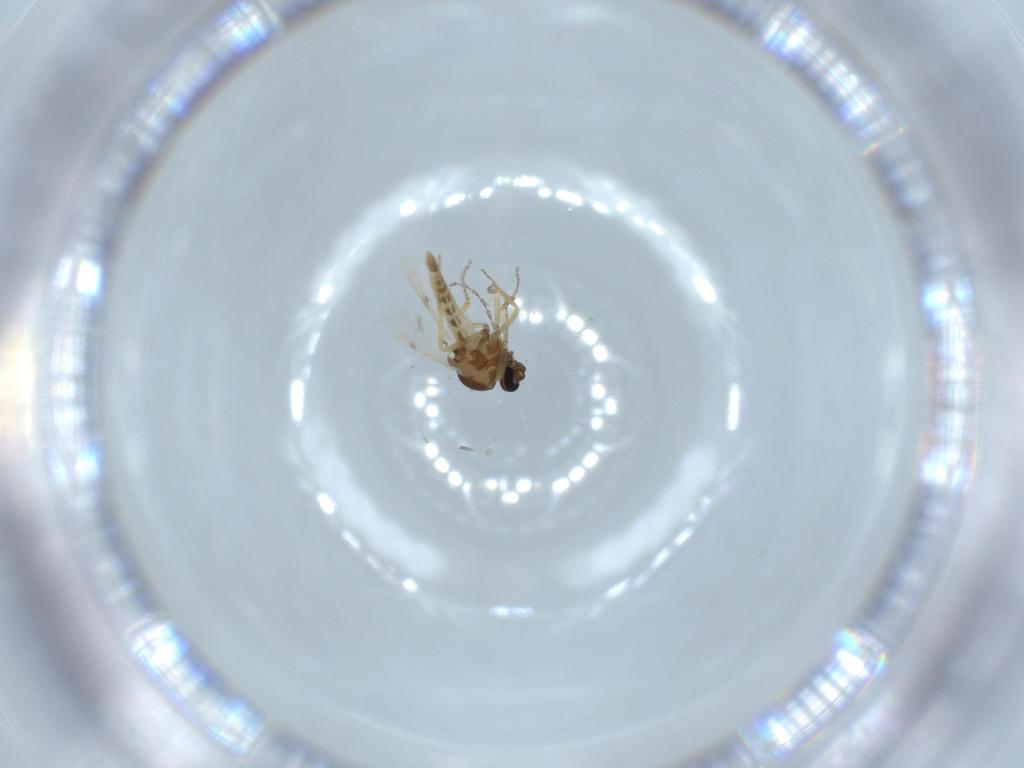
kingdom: Animalia
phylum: Arthropoda
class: Insecta
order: Diptera
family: Ceratopogonidae
